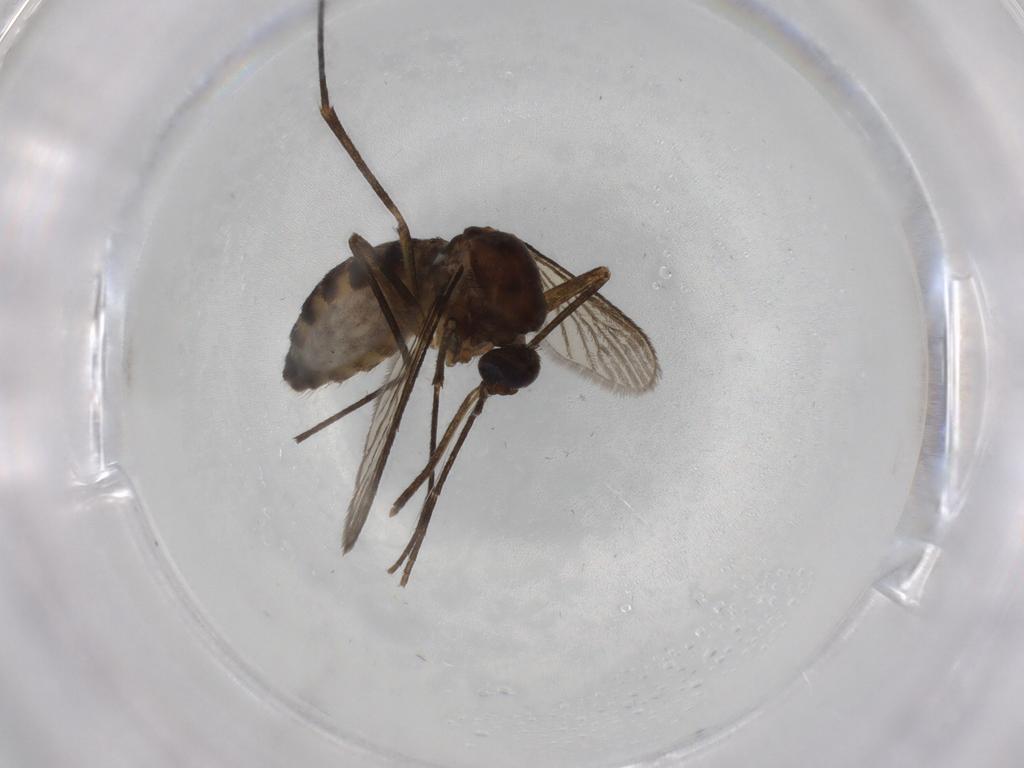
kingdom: Animalia
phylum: Arthropoda
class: Insecta
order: Diptera
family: Chironomidae
